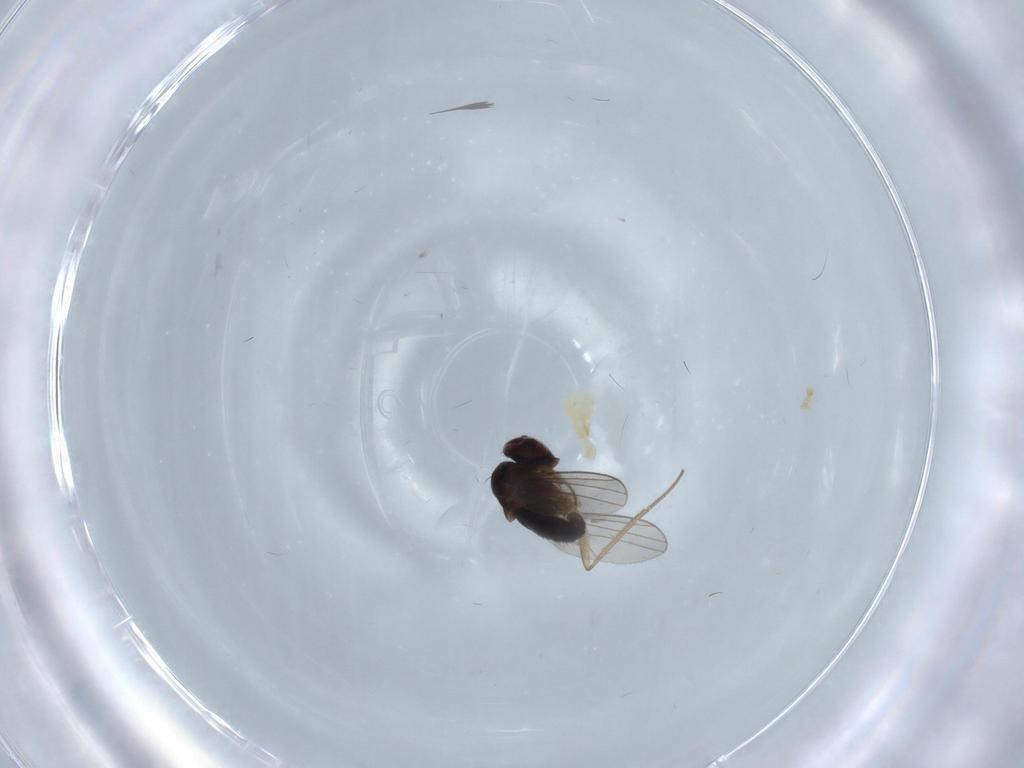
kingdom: Animalia
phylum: Arthropoda
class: Insecta
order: Diptera
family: Dolichopodidae
